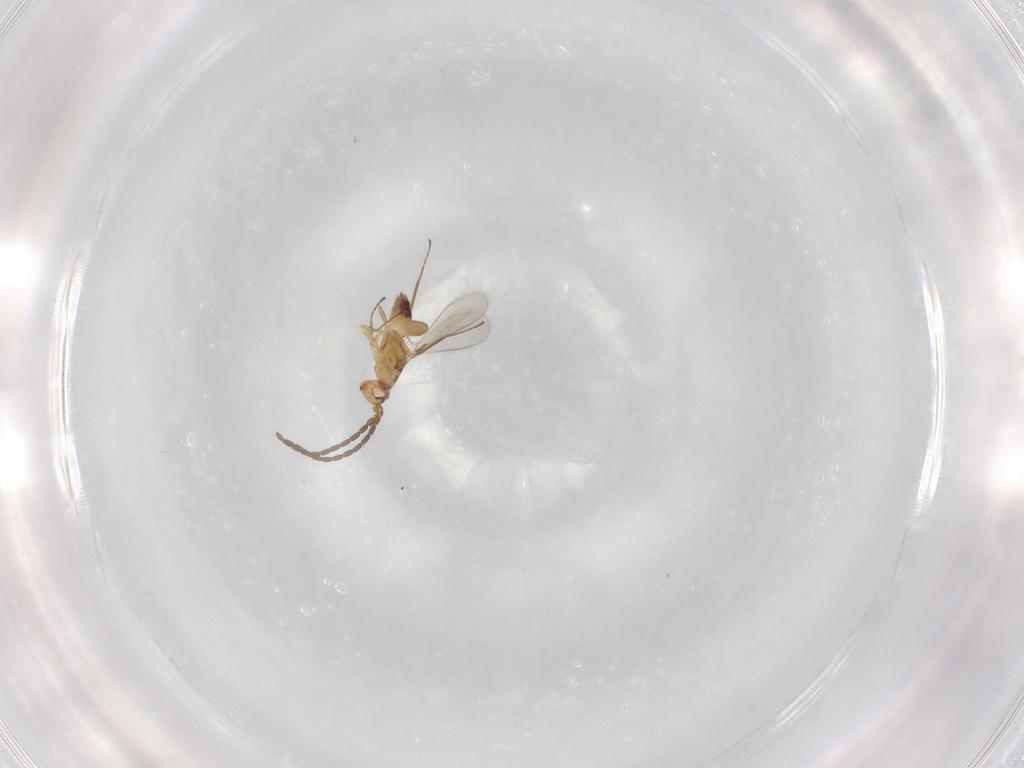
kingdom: Animalia
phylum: Arthropoda
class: Insecta
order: Hymenoptera
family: Mymaridae
